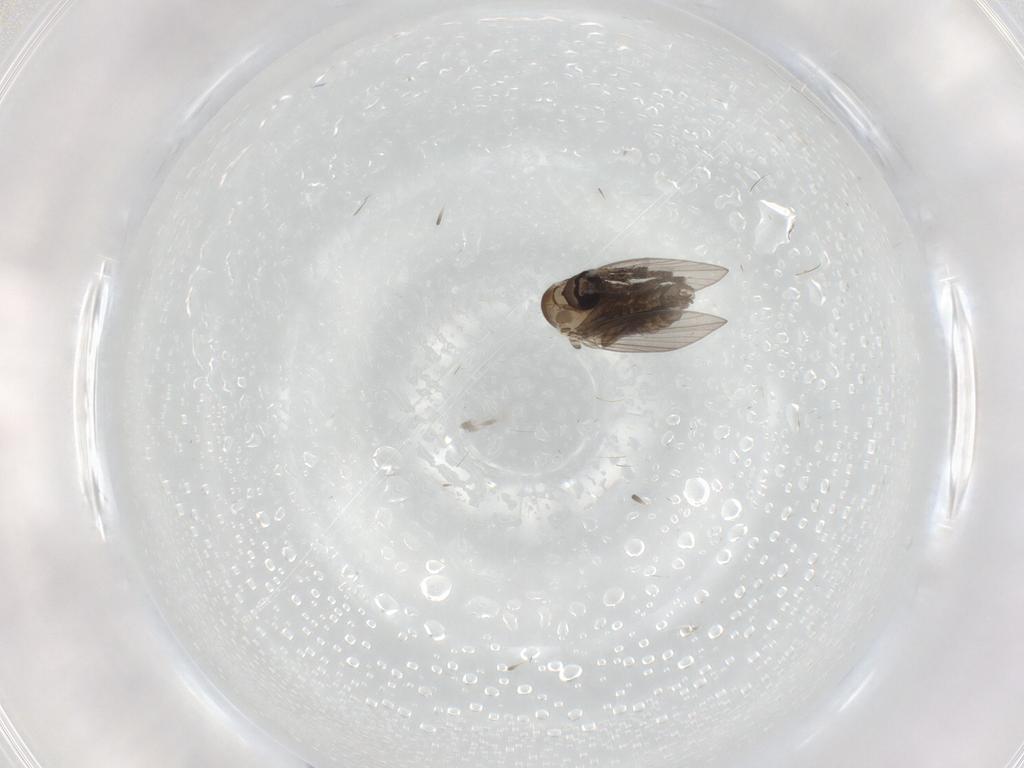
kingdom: Animalia
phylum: Arthropoda
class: Insecta
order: Diptera
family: Psychodidae
